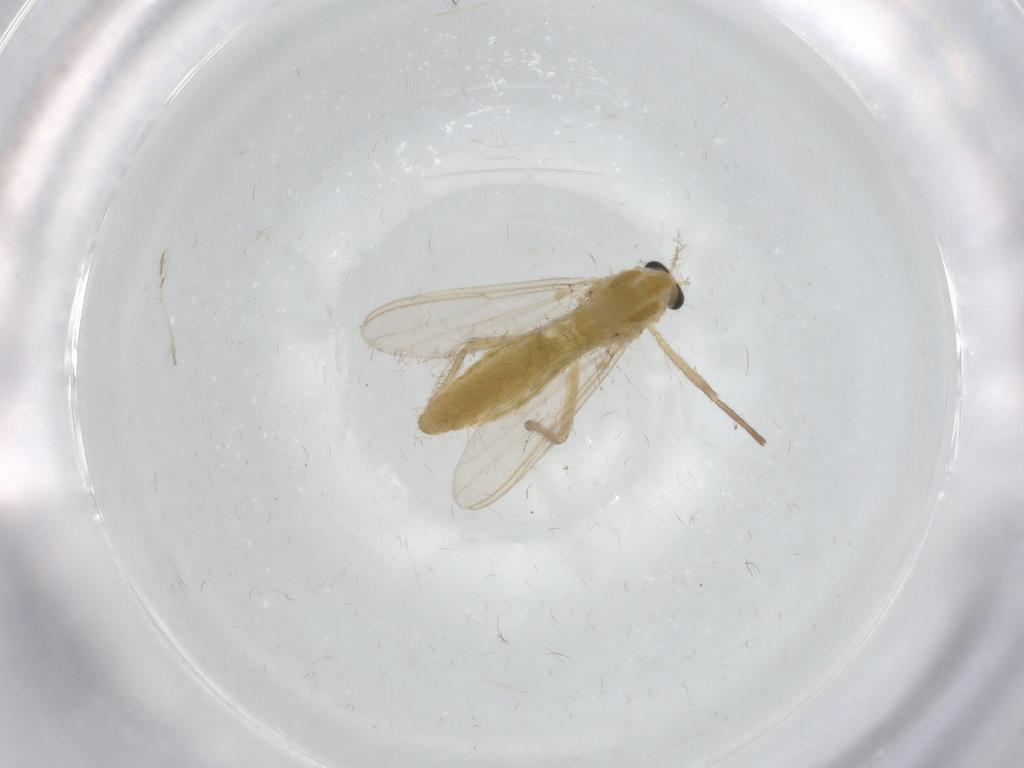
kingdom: Animalia
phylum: Arthropoda
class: Insecta
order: Diptera
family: Chironomidae
